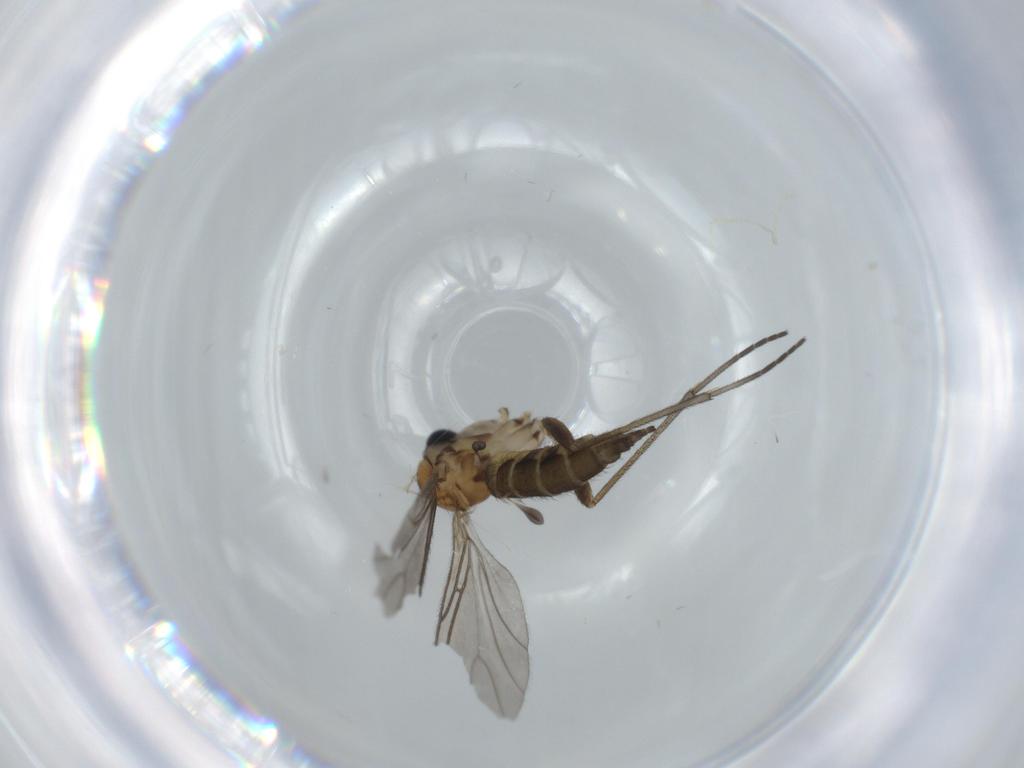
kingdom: Animalia
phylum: Arthropoda
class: Insecta
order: Diptera
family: Sciaridae
